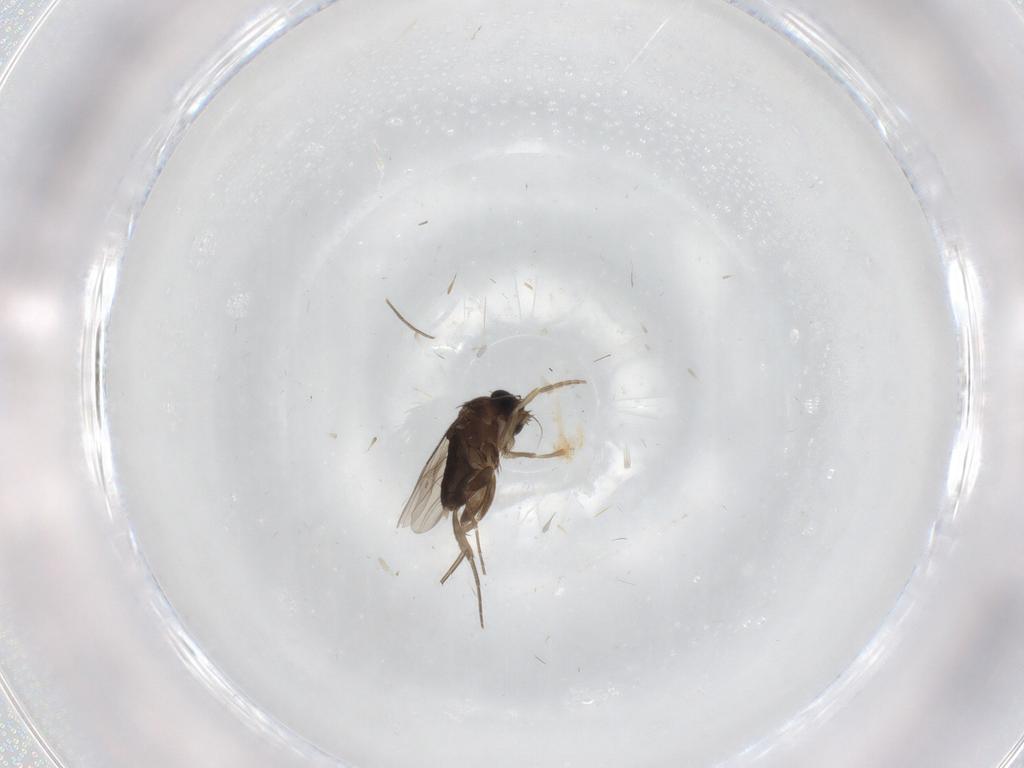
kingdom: Animalia
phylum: Arthropoda
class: Insecta
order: Diptera
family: Phoridae
